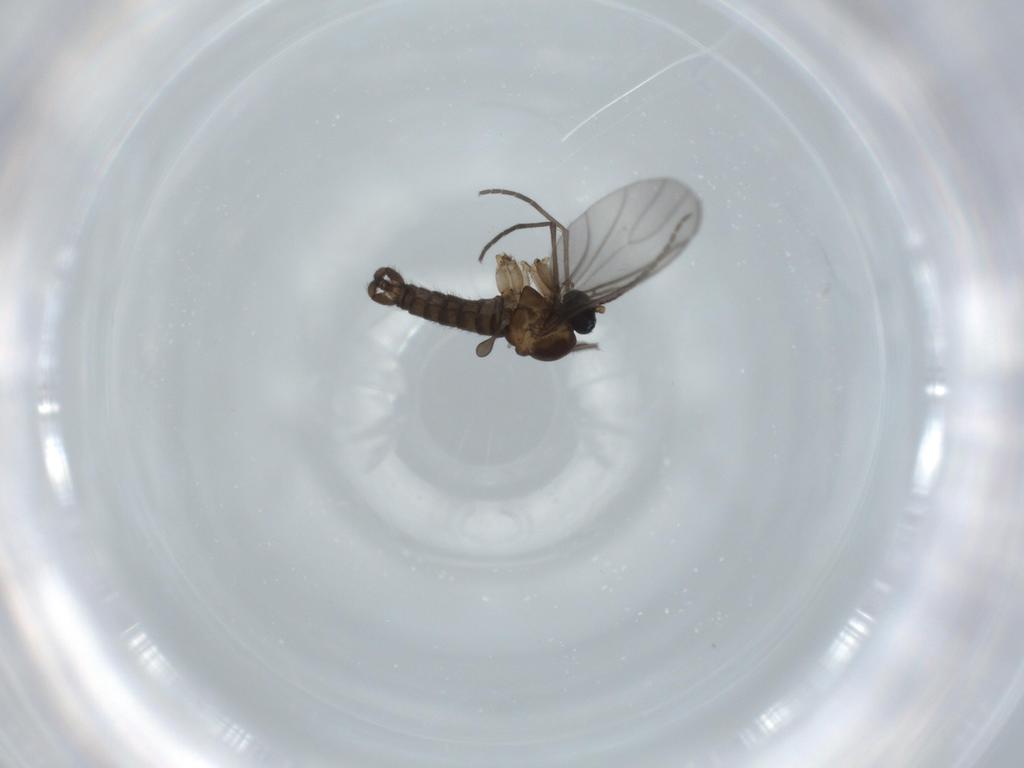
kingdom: Animalia
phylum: Arthropoda
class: Insecta
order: Diptera
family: Sciaridae
